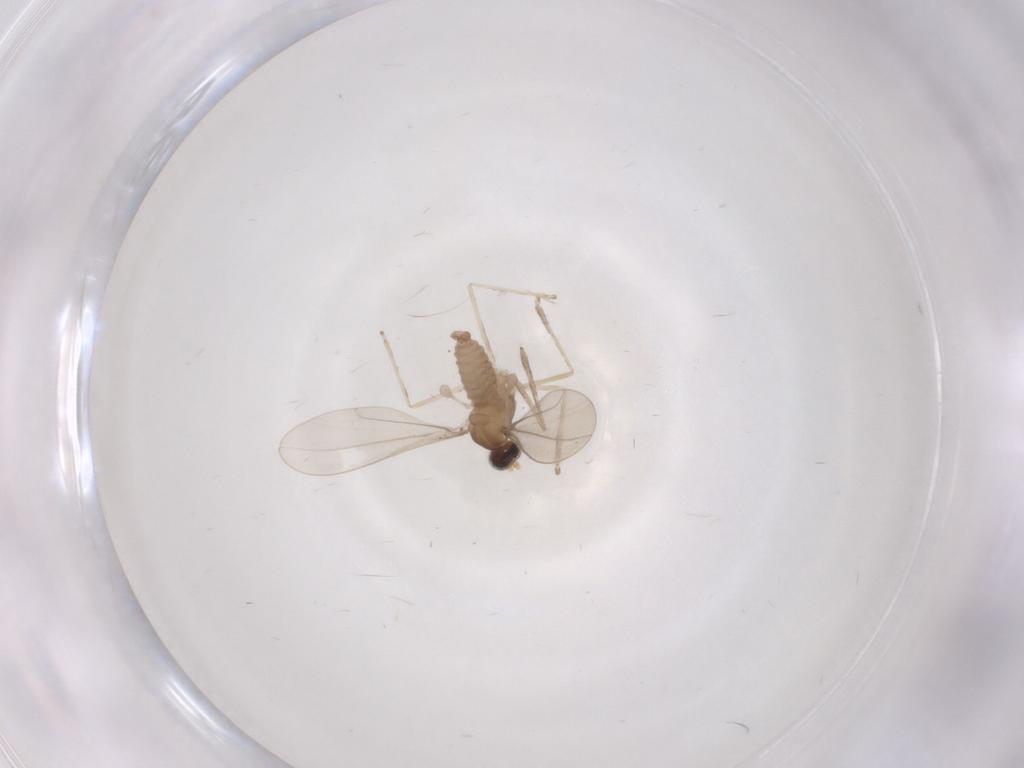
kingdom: Animalia
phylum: Arthropoda
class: Insecta
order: Diptera
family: Cecidomyiidae
